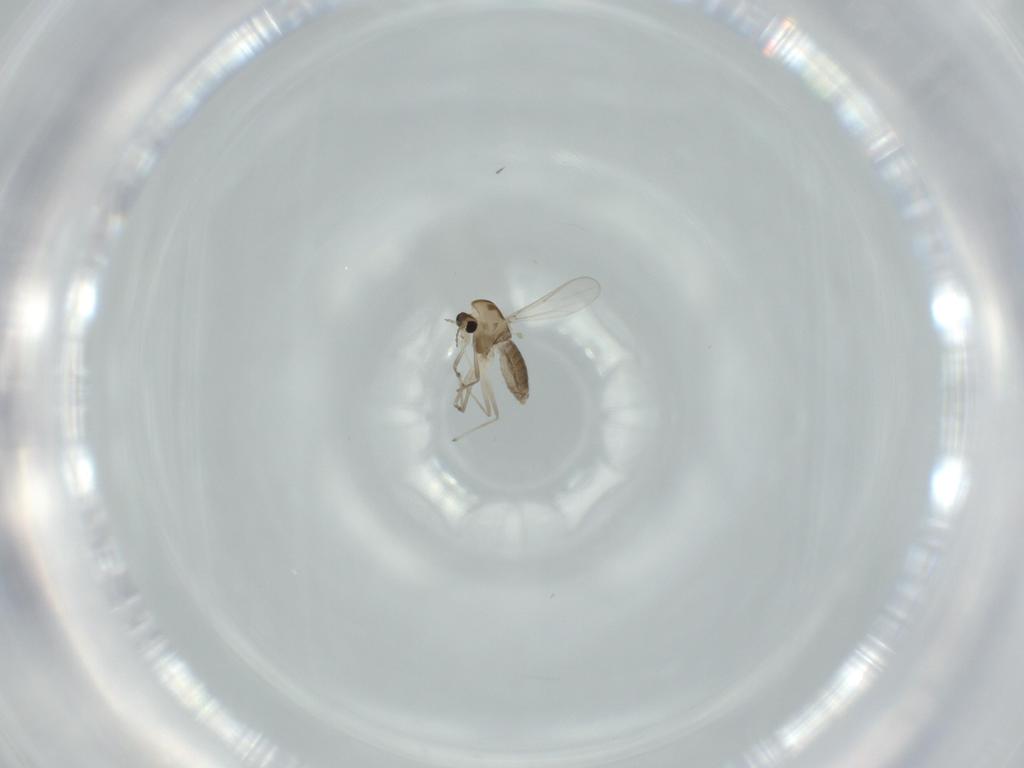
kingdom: Animalia
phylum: Arthropoda
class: Insecta
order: Diptera
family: Chironomidae
